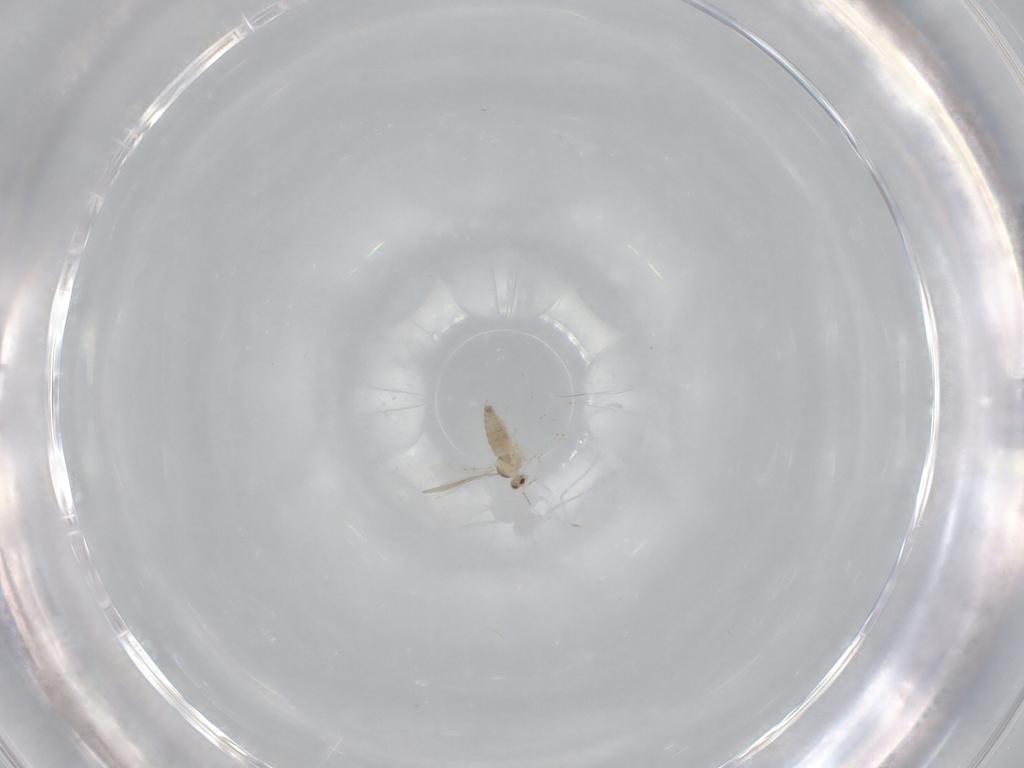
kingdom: Animalia
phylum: Arthropoda
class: Insecta
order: Diptera
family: Cecidomyiidae
